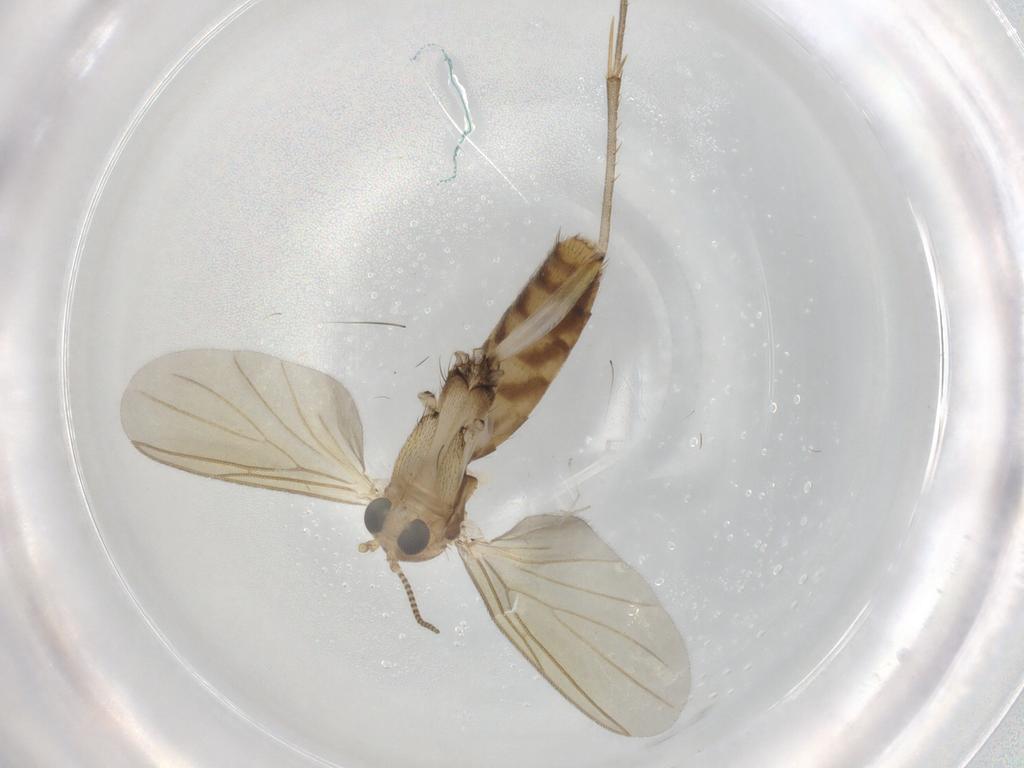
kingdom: Animalia
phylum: Arthropoda
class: Insecta
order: Diptera
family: Mycetophilidae
